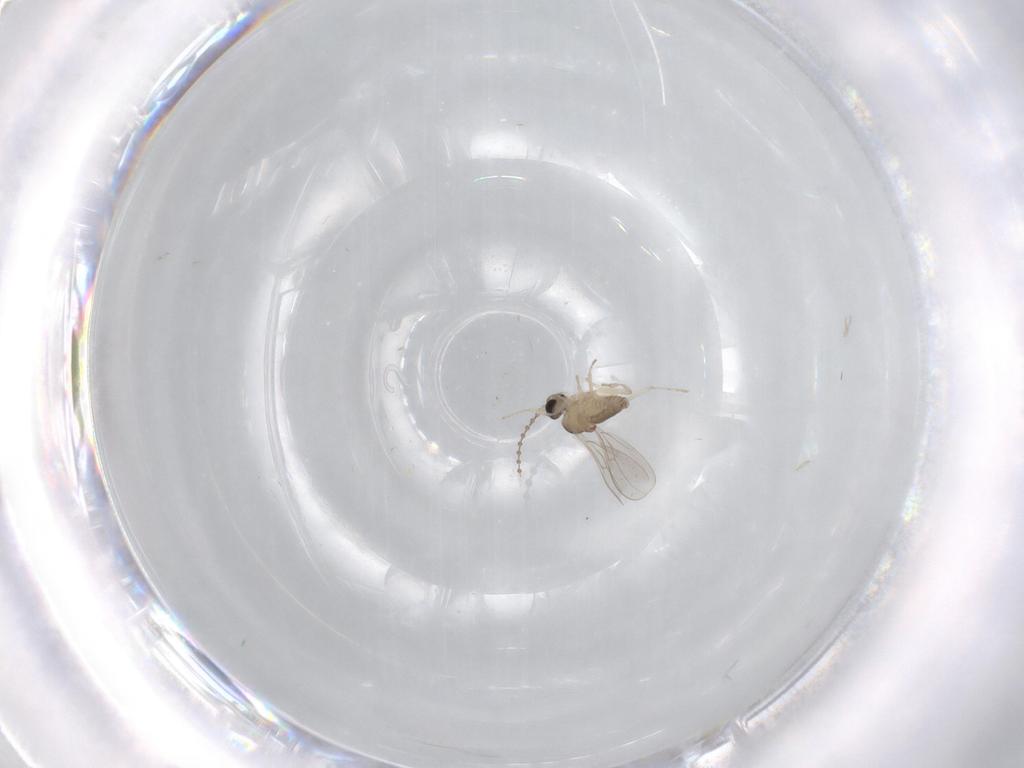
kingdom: Animalia
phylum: Arthropoda
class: Insecta
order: Diptera
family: Cecidomyiidae
